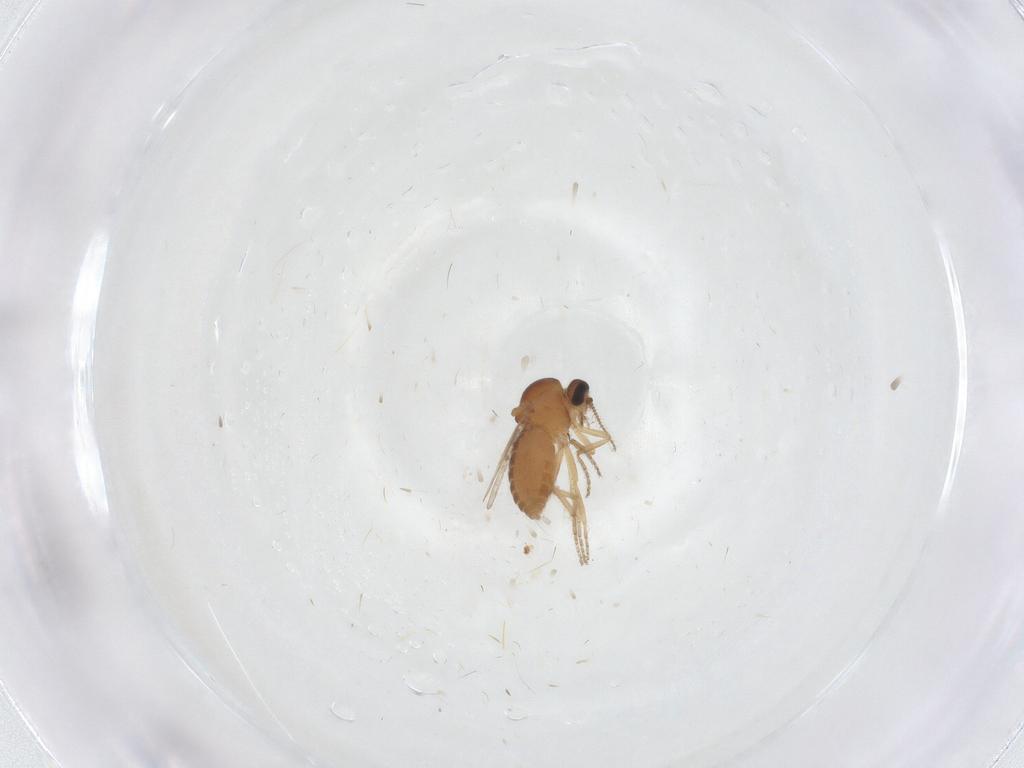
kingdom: Animalia
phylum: Arthropoda
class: Insecta
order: Diptera
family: Ceratopogonidae
